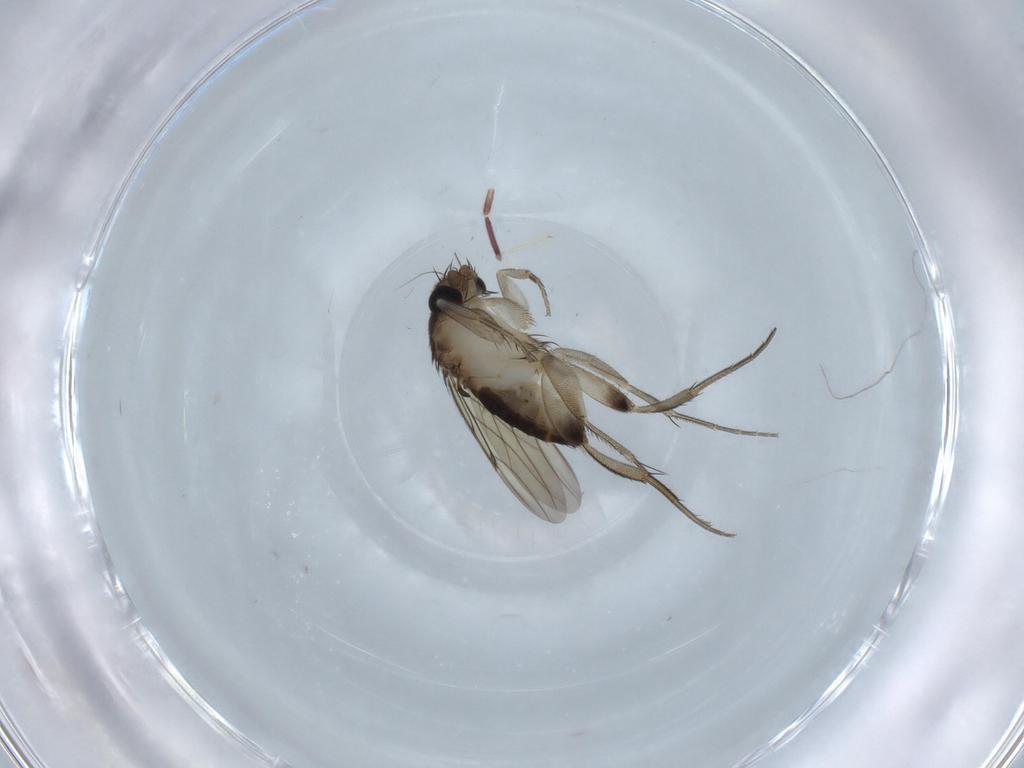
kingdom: Animalia
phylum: Arthropoda
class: Insecta
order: Diptera
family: Phoridae
